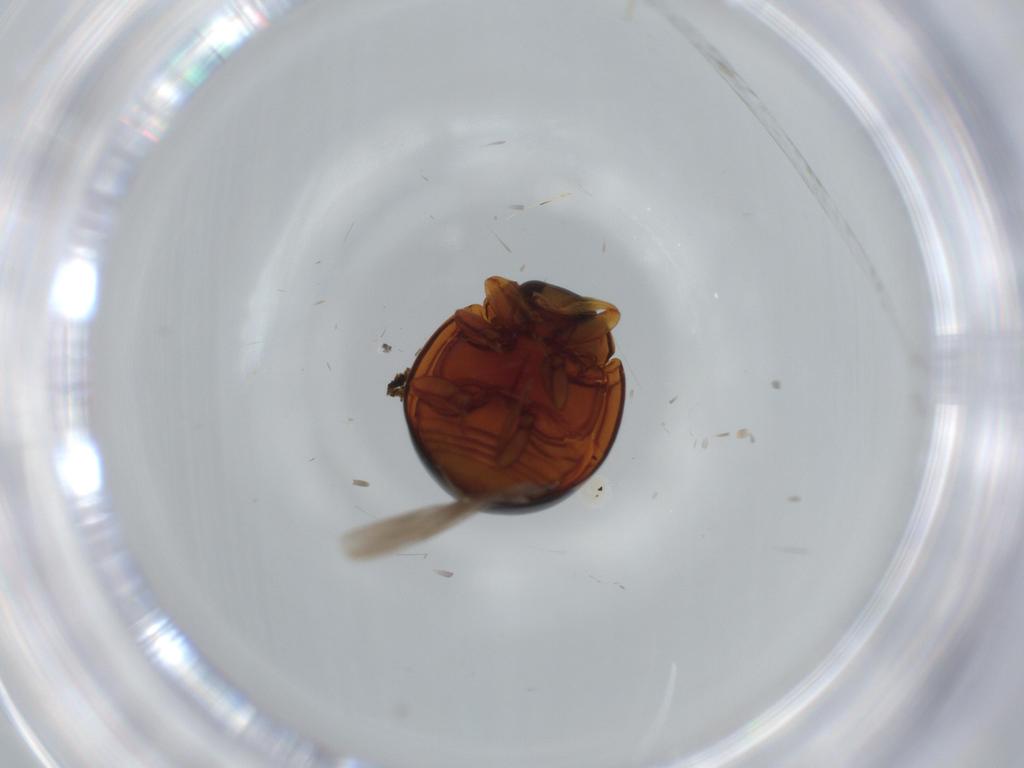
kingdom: Animalia
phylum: Arthropoda
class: Insecta
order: Coleoptera
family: Coccinellidae
